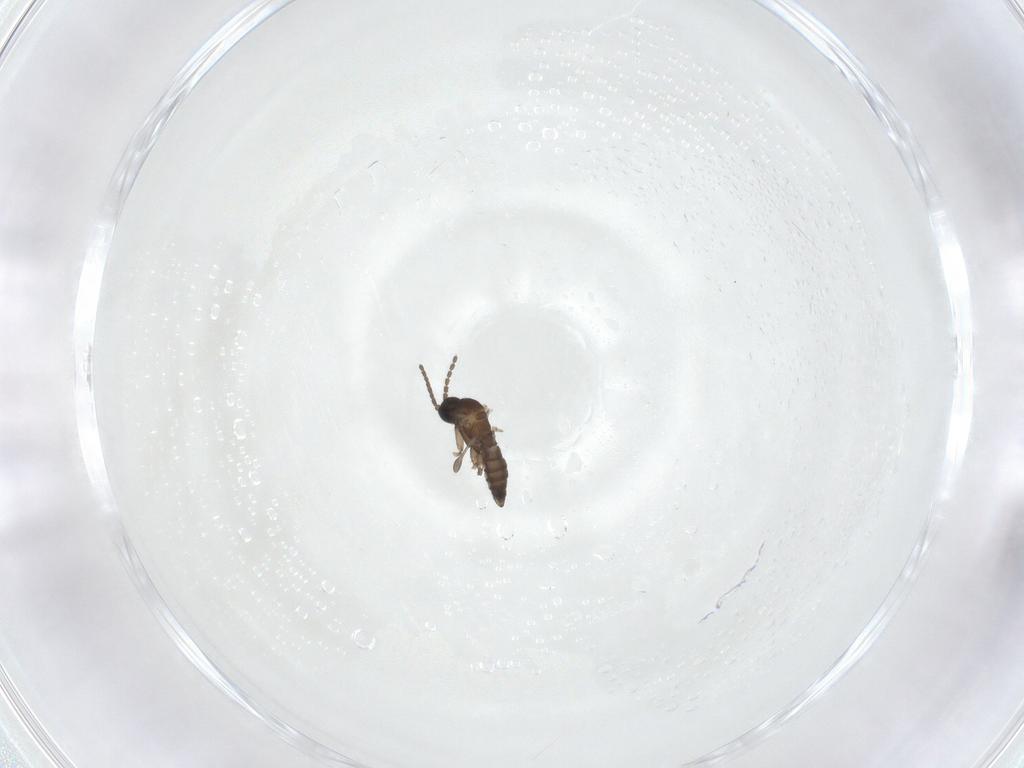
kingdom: Animalia
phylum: Arthropoda
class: Insecta
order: Diptera
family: Sciaridae
